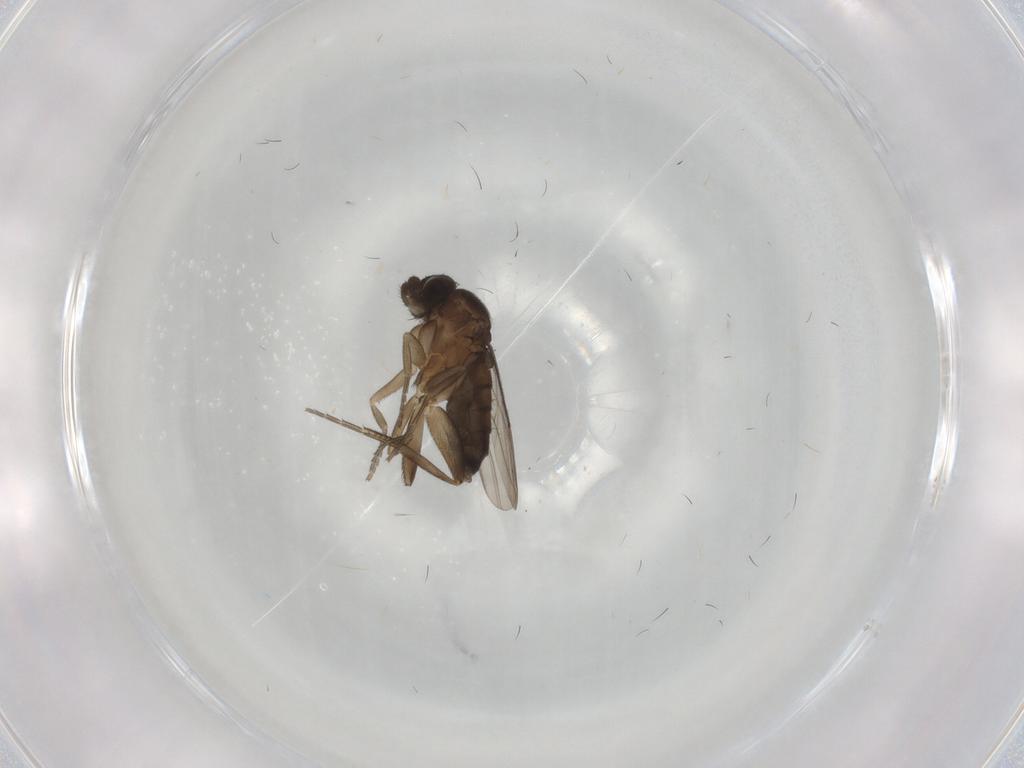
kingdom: Animalia
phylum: Arthropoda
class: Insecta
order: Diptera
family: Phoridae
